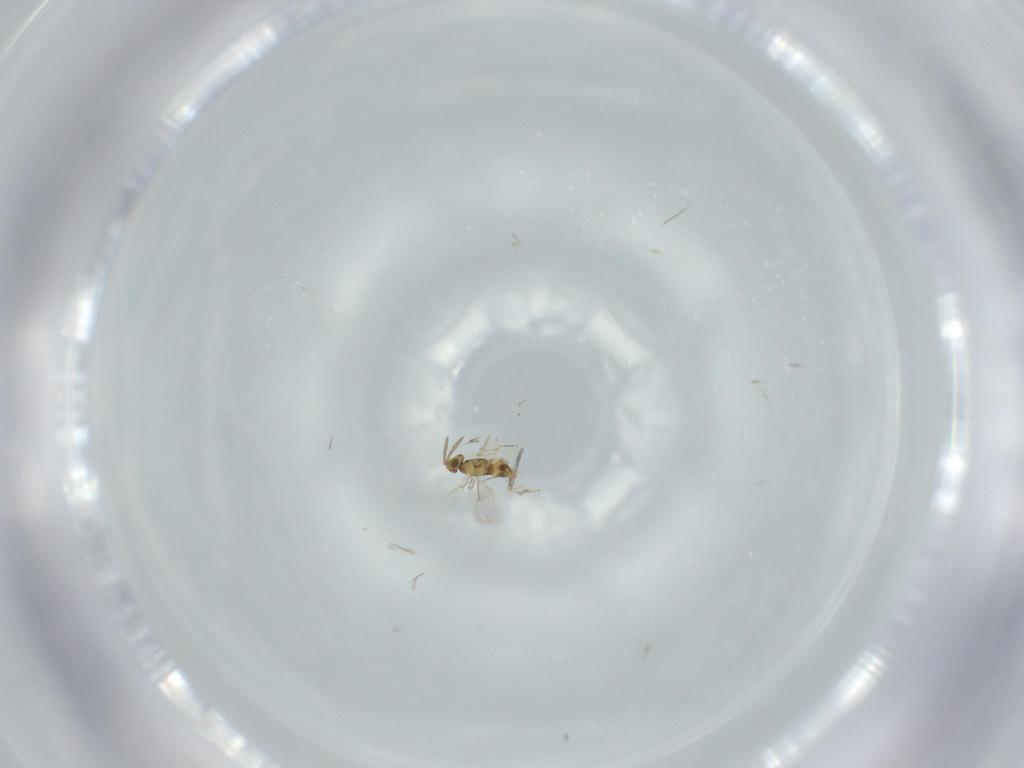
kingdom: Animalia
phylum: Arthropoda
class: Insecta
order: Hymenoptera
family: Aphelinidae
